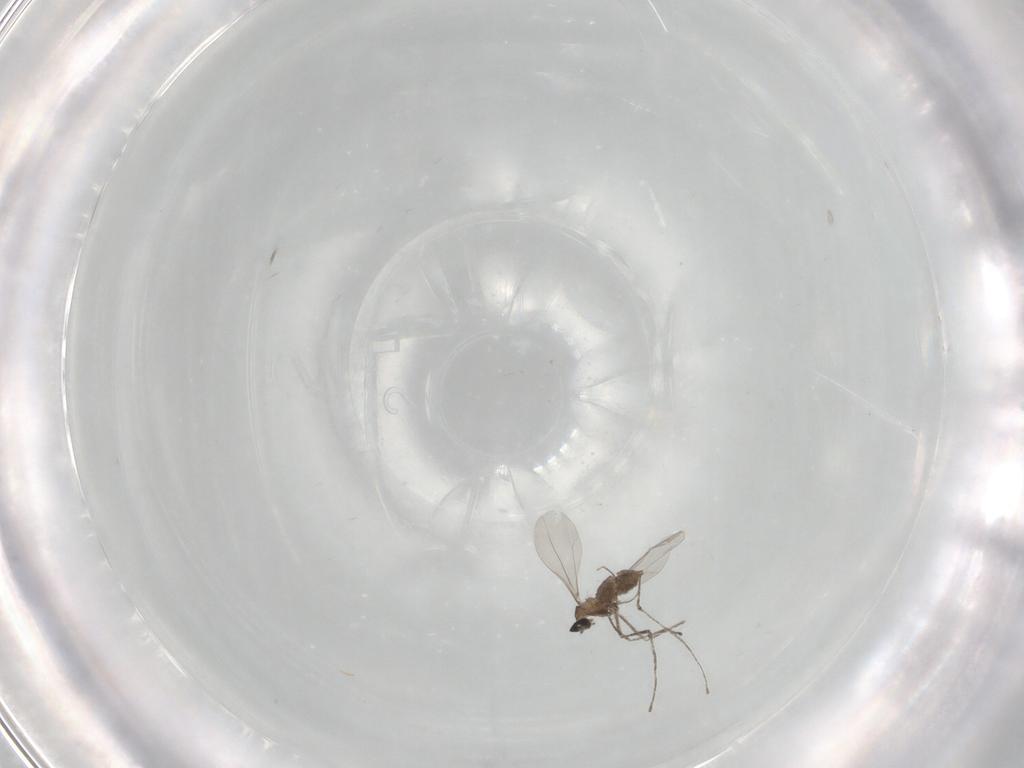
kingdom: Animalia
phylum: Arthropoda
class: Insecta
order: Diptera
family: Cecidomyiidae
